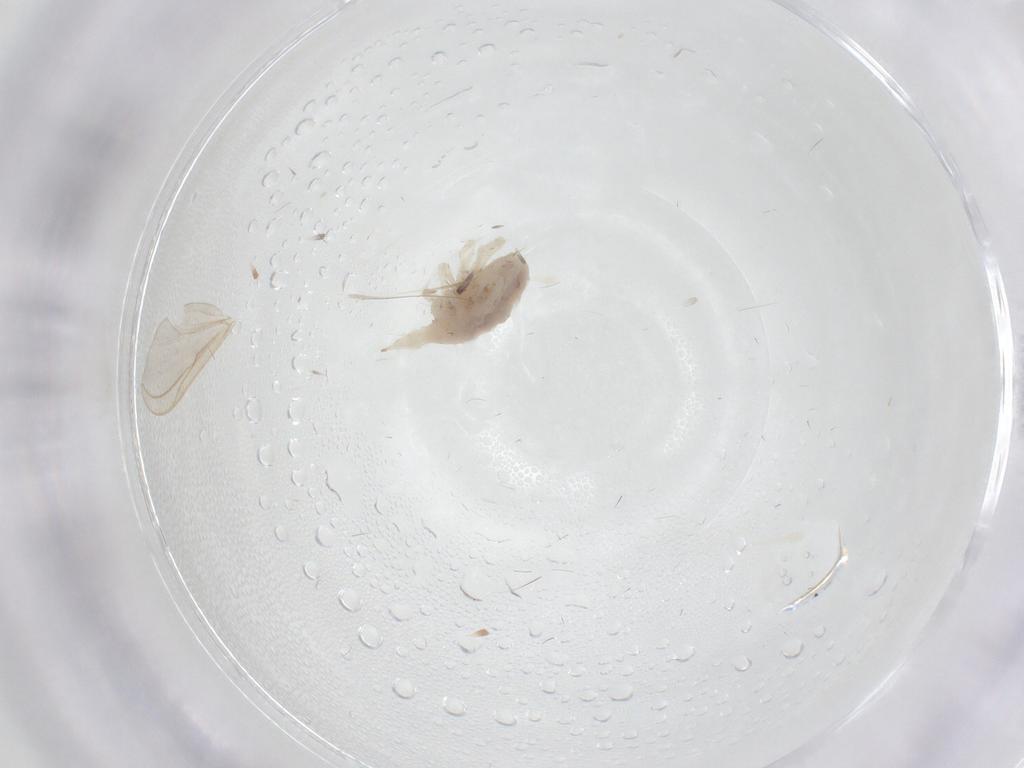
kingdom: Animalia
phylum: Arthropoda
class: Arachnida
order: Trombidiformes
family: Bdellidae
